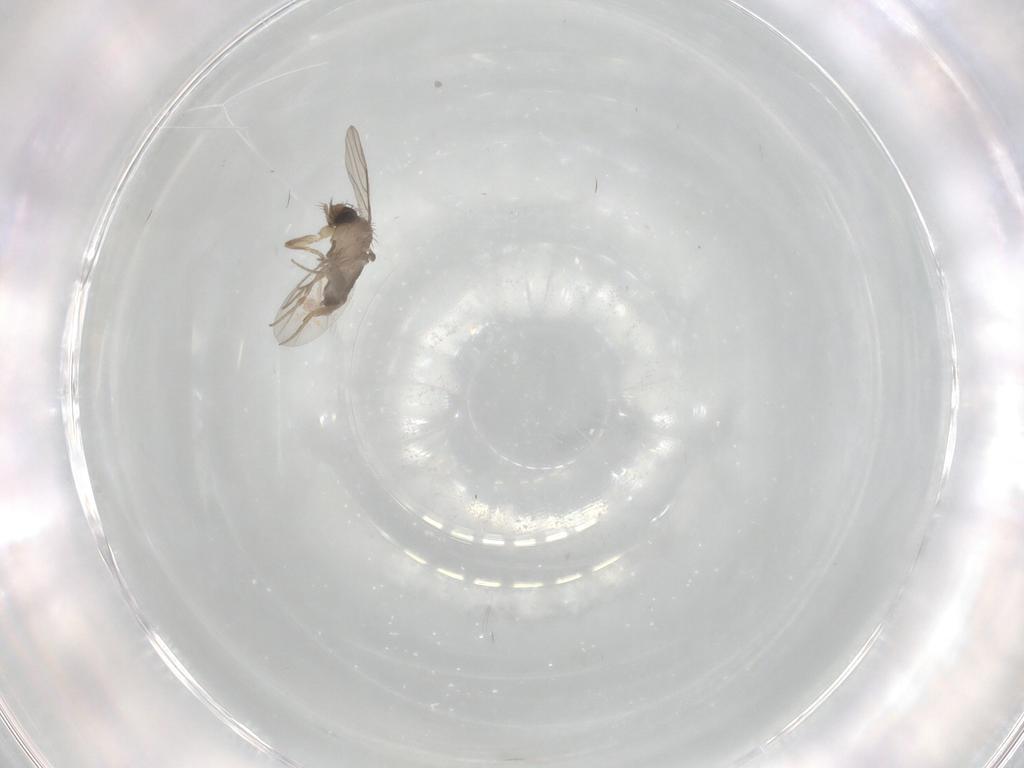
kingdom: Animalia
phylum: Arthropoda
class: Insecta
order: Diptera
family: Phoridae
